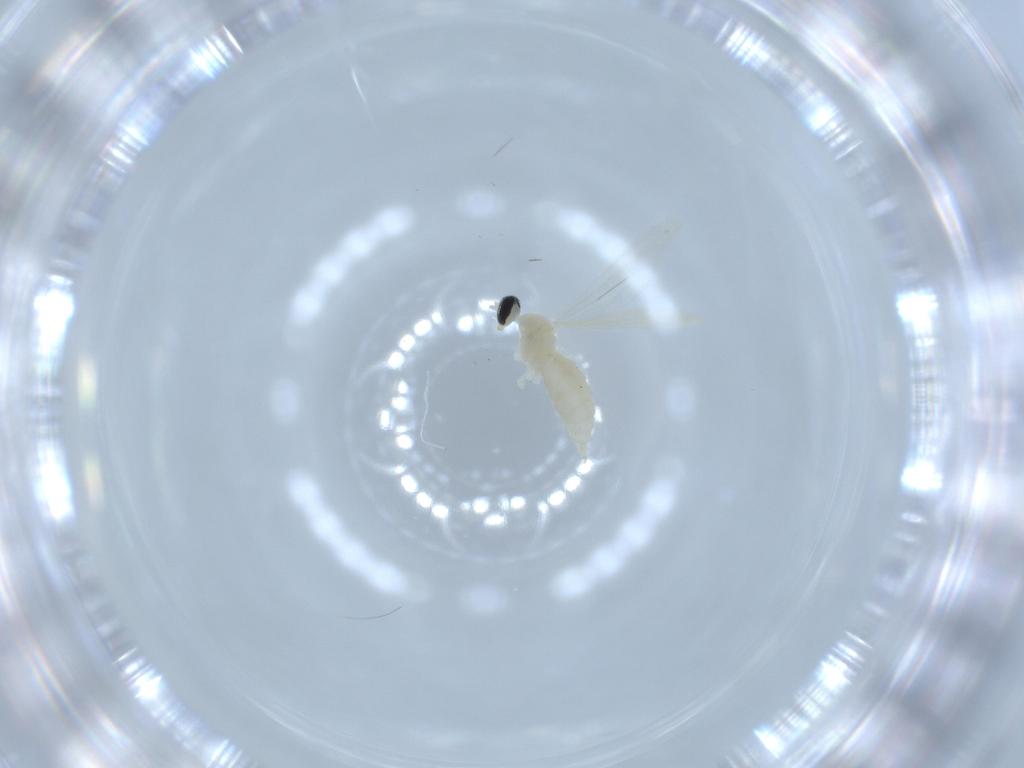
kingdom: Animalia
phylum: Arthropoda
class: Insecta
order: Diptera
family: Cecidomyiidae
